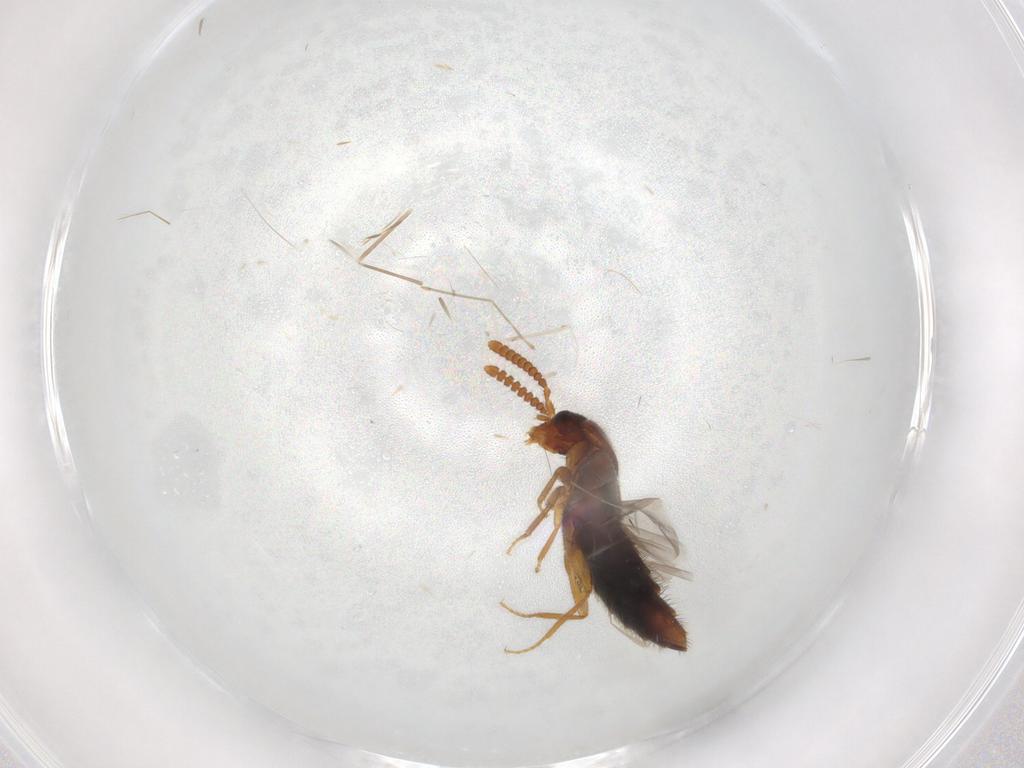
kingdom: Animalia
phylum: Arthropoda
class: Insecta
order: Coleoptera
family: Staphylinidae
